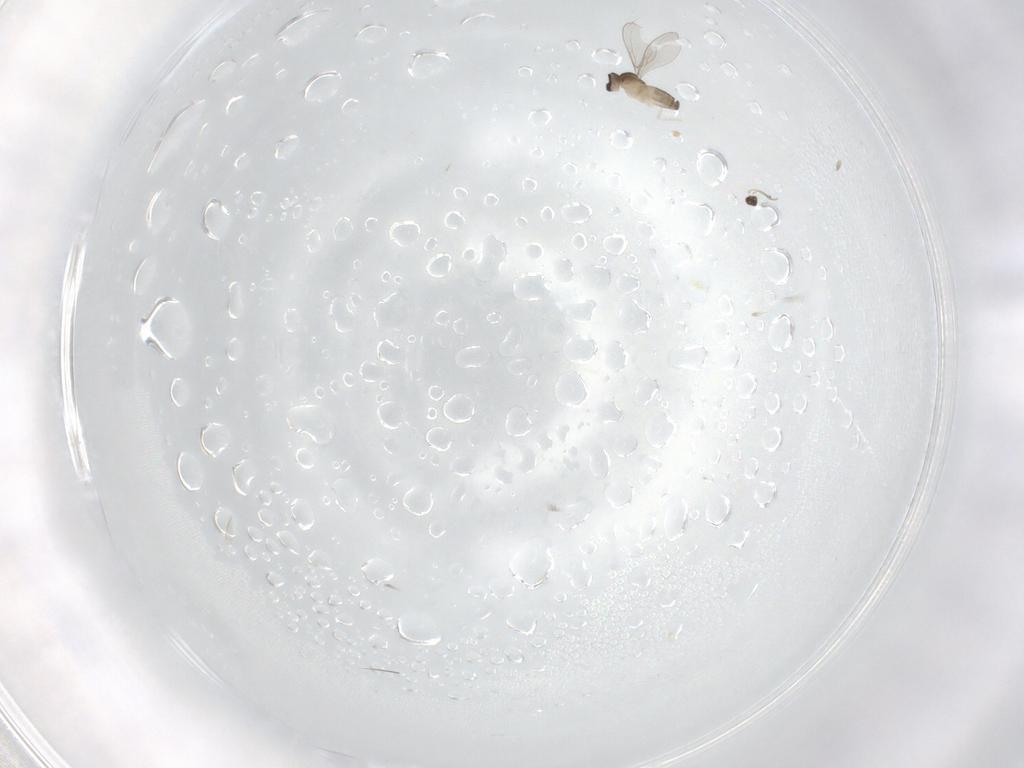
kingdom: Animalia
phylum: Arthropoda
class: Insecta
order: Diptera
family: Cecidomyiidae
